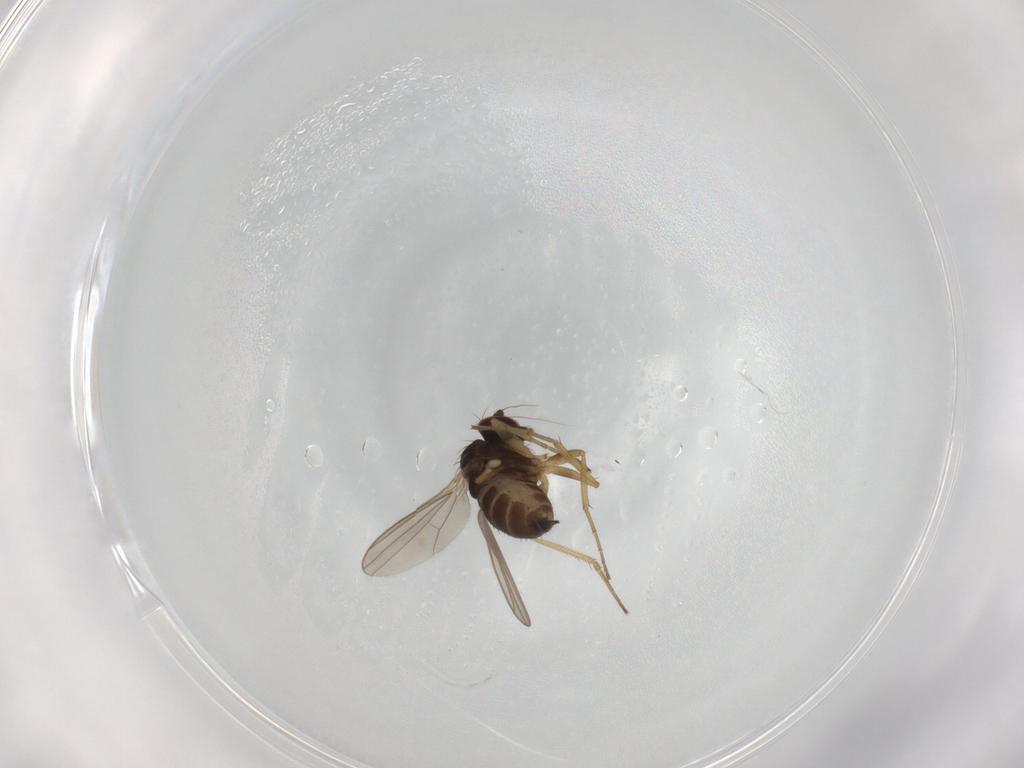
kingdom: Animalia
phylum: Arthropoda
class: Insecta
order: Diptera
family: Dolichopodidae
